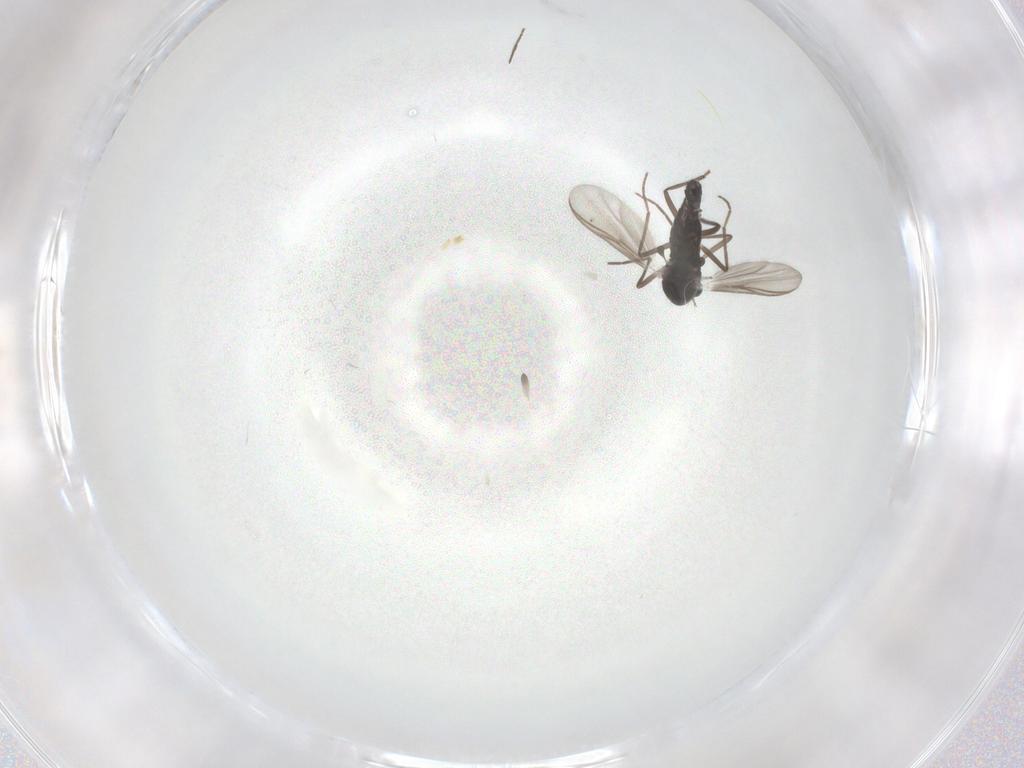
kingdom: Animalia
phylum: Arthropoda
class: Insecta
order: Diptera
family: Chironomidae
